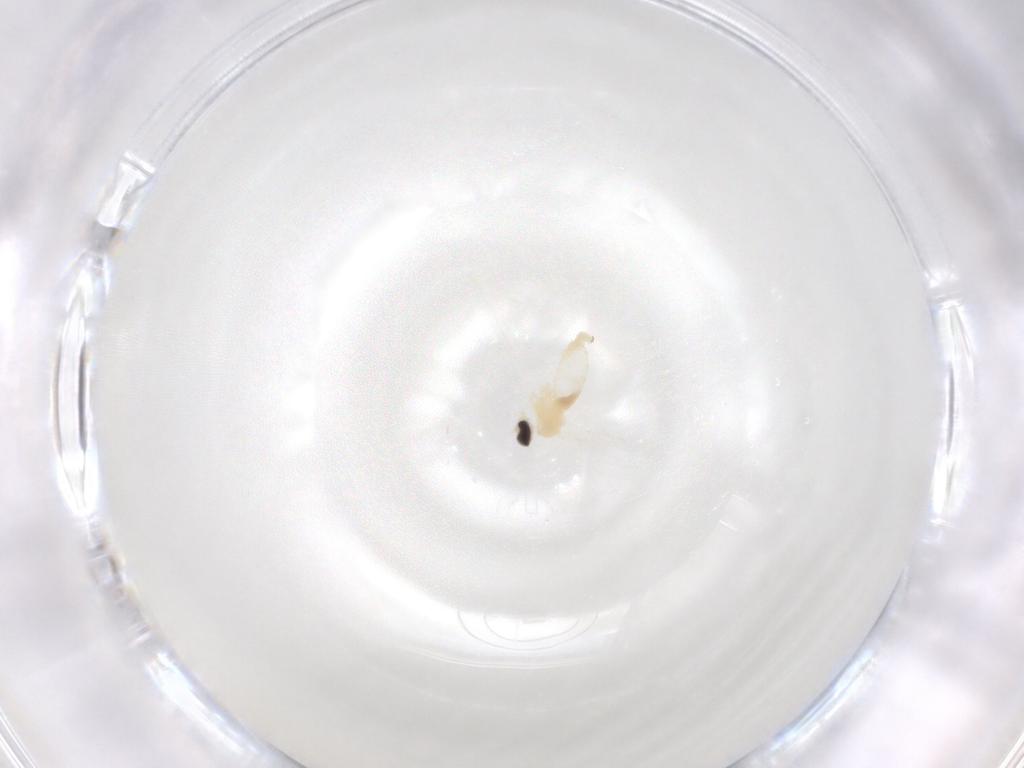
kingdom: Animalia
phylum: Arthropoda
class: Insecta
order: Diptera
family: Cecidomyiidae
